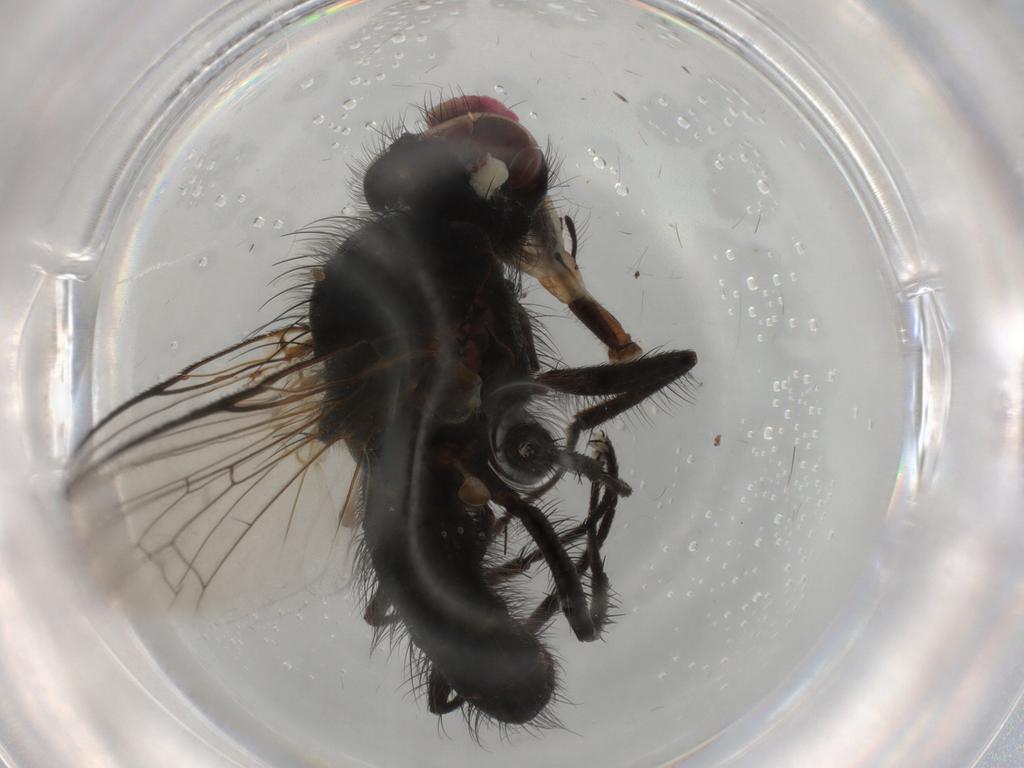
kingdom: Animalia
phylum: Arthropoda
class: Insecta
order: Diptera
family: Anthomyiidae
